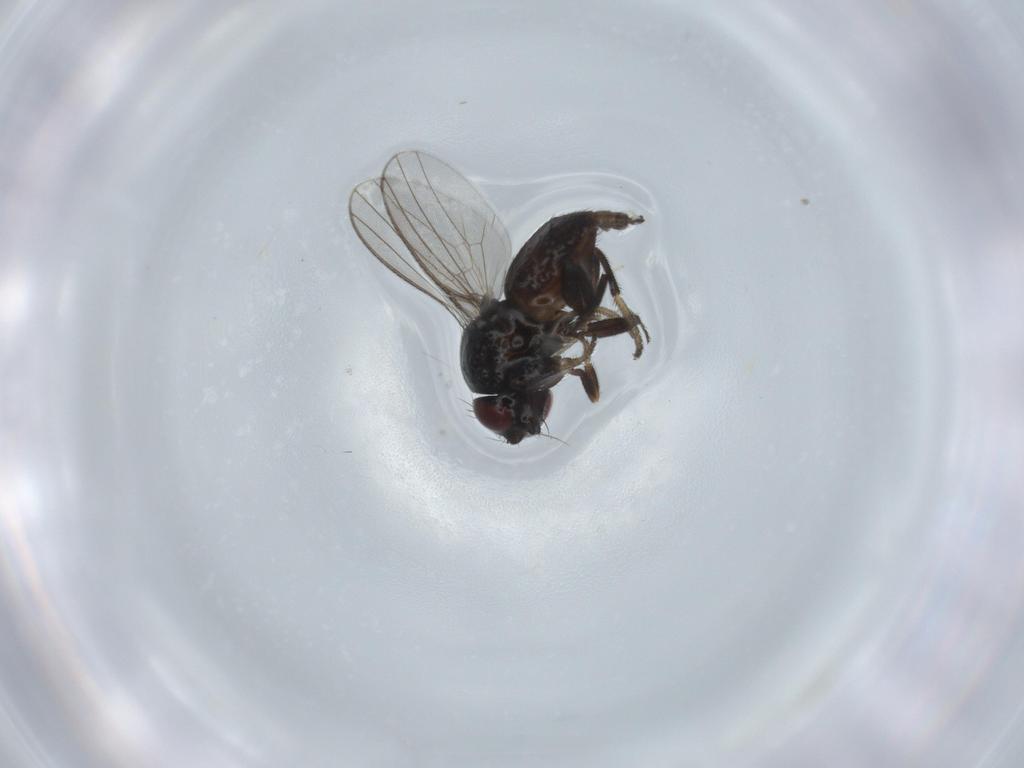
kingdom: Animalia
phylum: Arthropoda
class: Insecta
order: Diptera
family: Milichiidae
